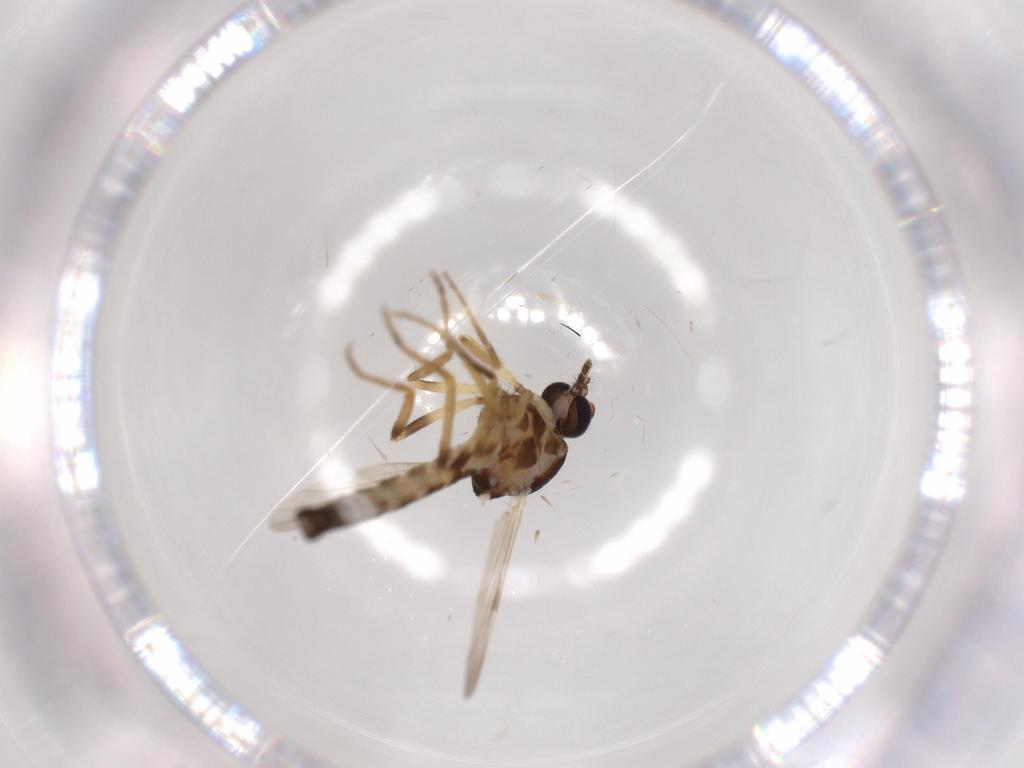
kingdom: Animalia
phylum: Arthropoda
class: Insecta
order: Diptera
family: Ceratopogonidae
